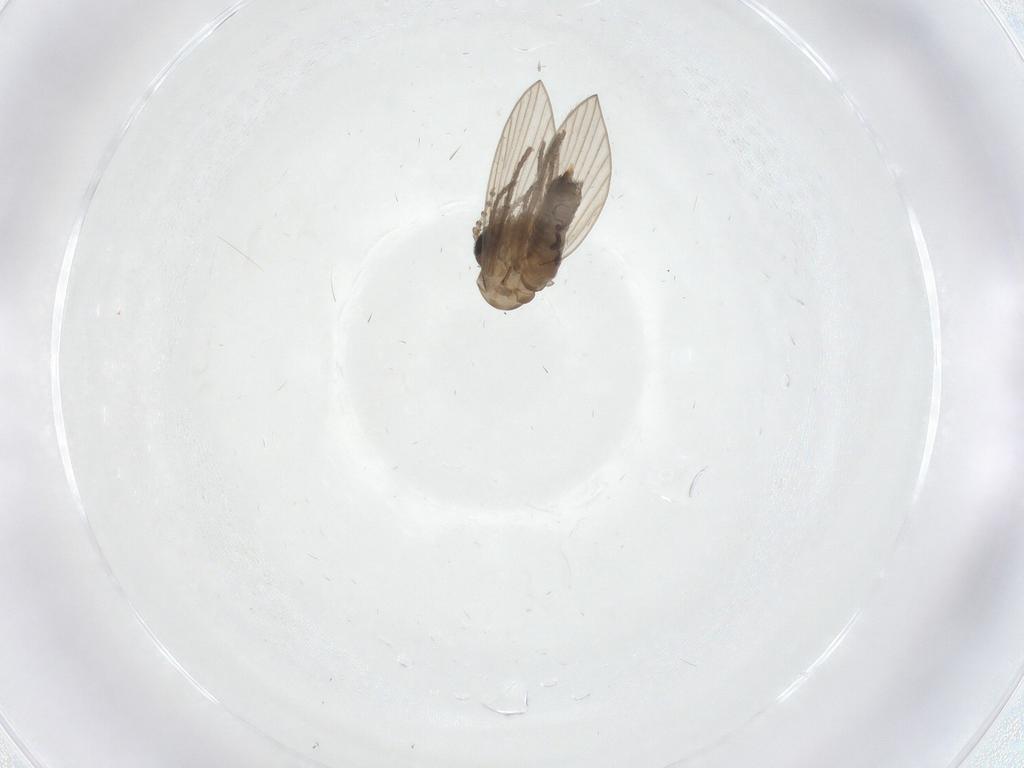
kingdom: Animalia
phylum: Arthropoda
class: Insecta
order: Diptera
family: Psychodidae
